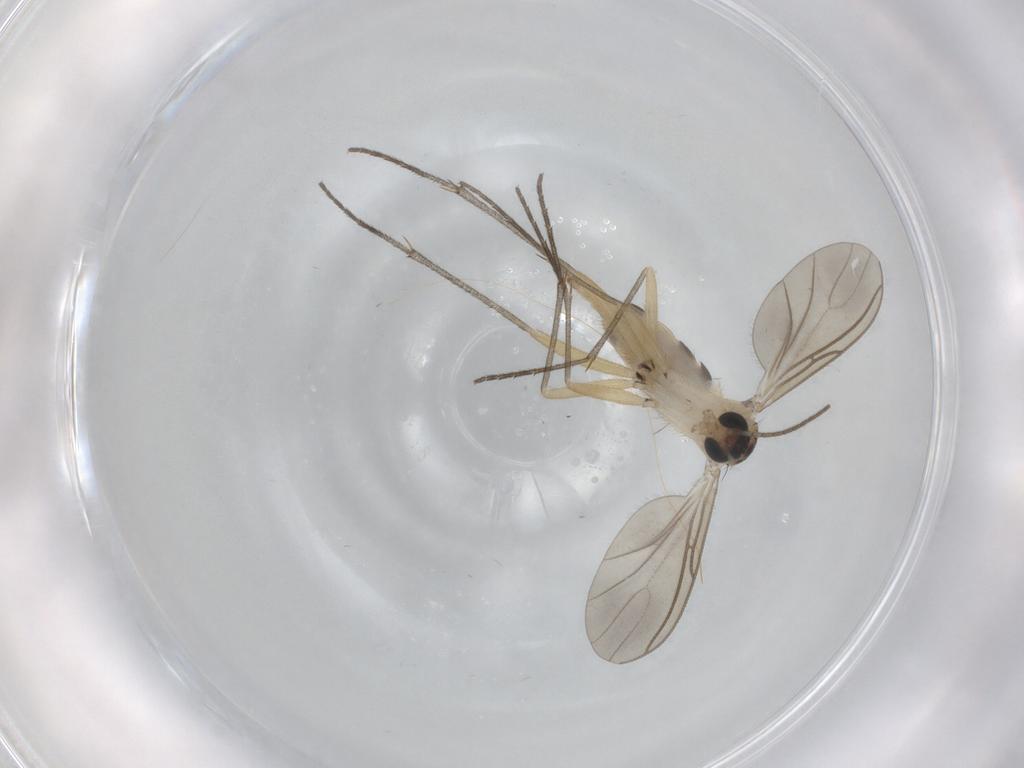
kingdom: Animalia
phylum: Arthropoda
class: Insecta
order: Diptera
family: Sciaridae
